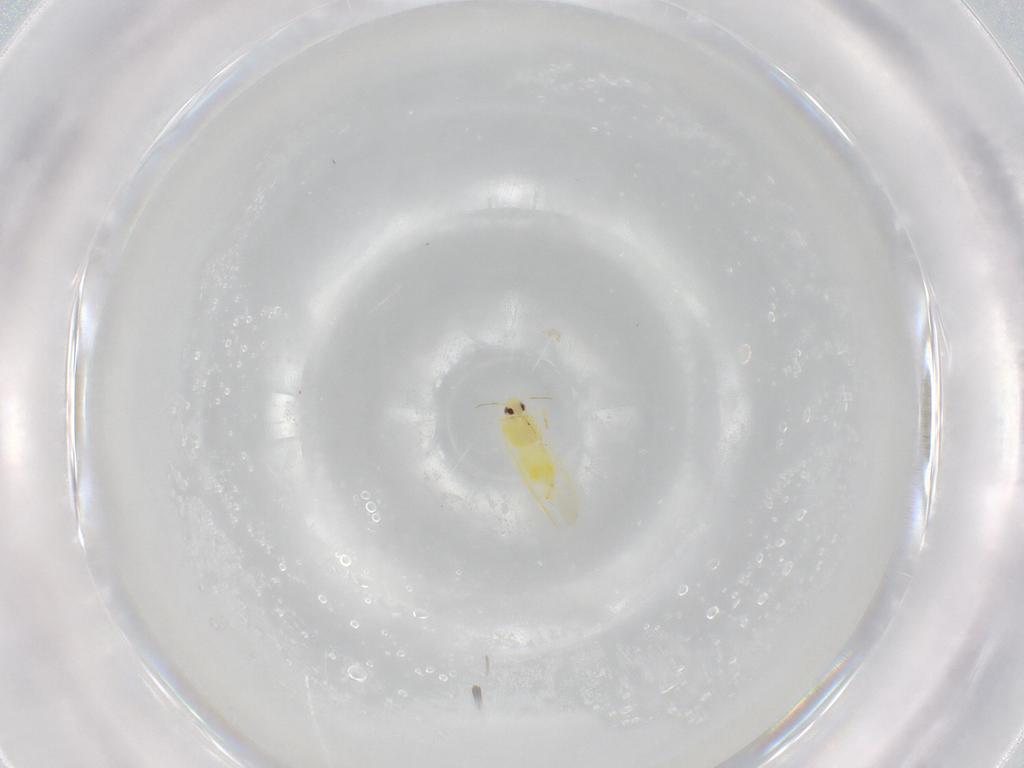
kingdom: Animalia
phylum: Arthropoda
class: Insecta
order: Hemiptera
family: Aleyrodidae
